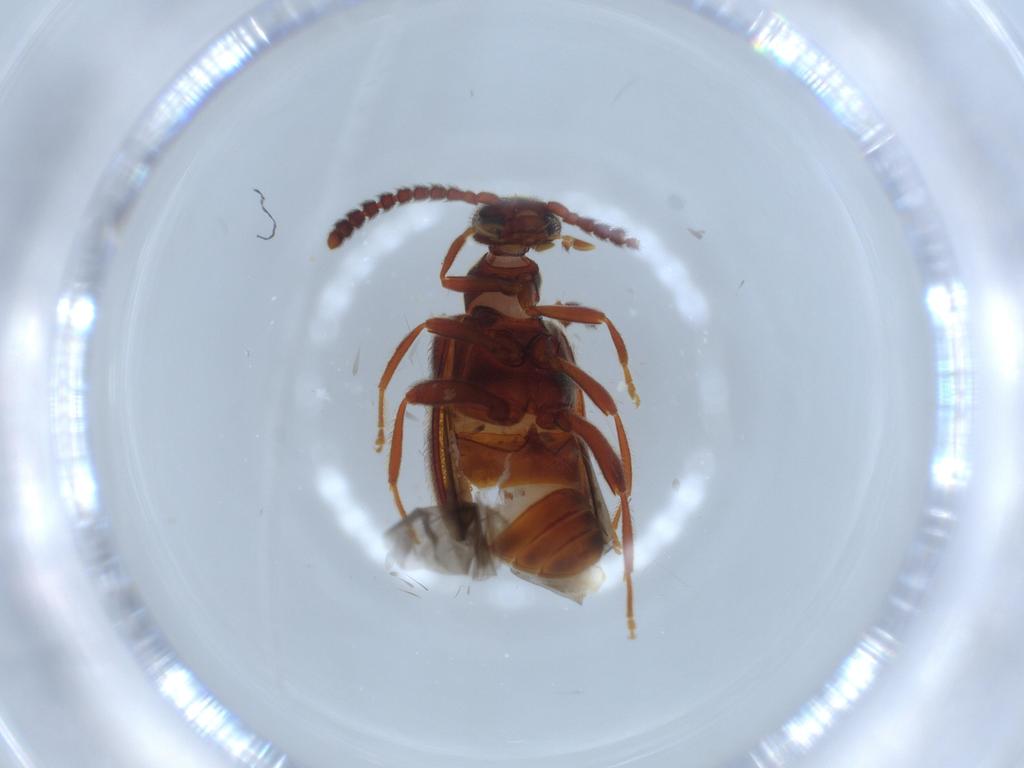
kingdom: Animalia
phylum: Arthropoda
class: Insecta
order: Coleoptera
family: Aderidae
